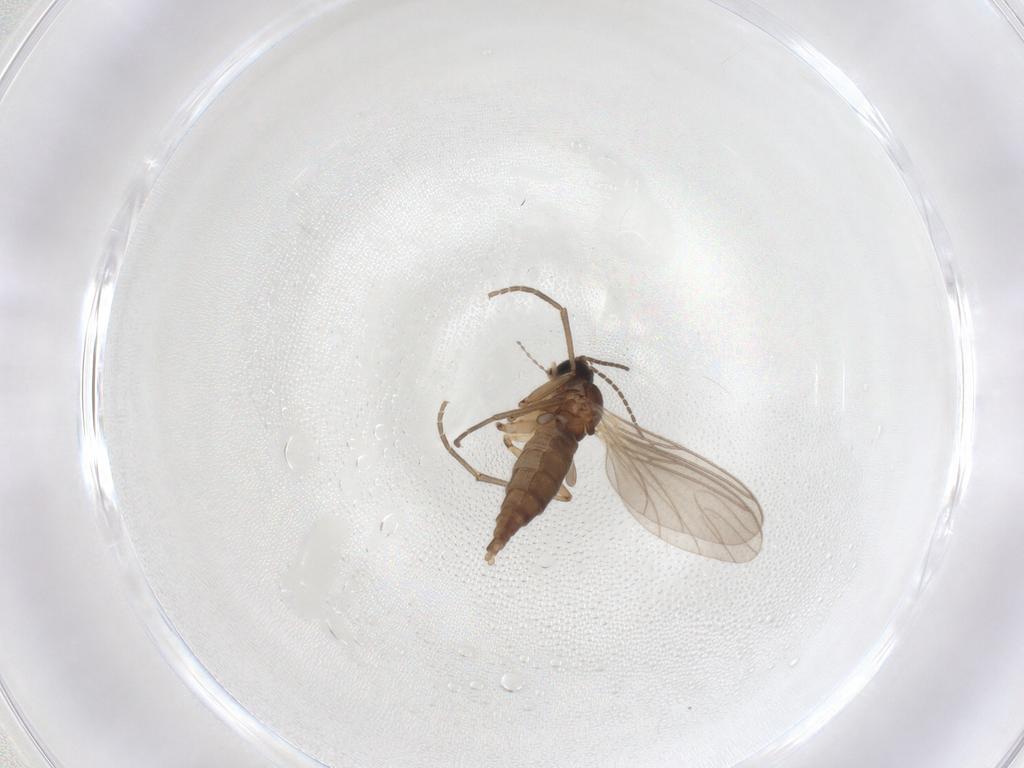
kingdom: Animalia
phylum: Arthropoda
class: Insecta
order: Diptera
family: Sciaridae
